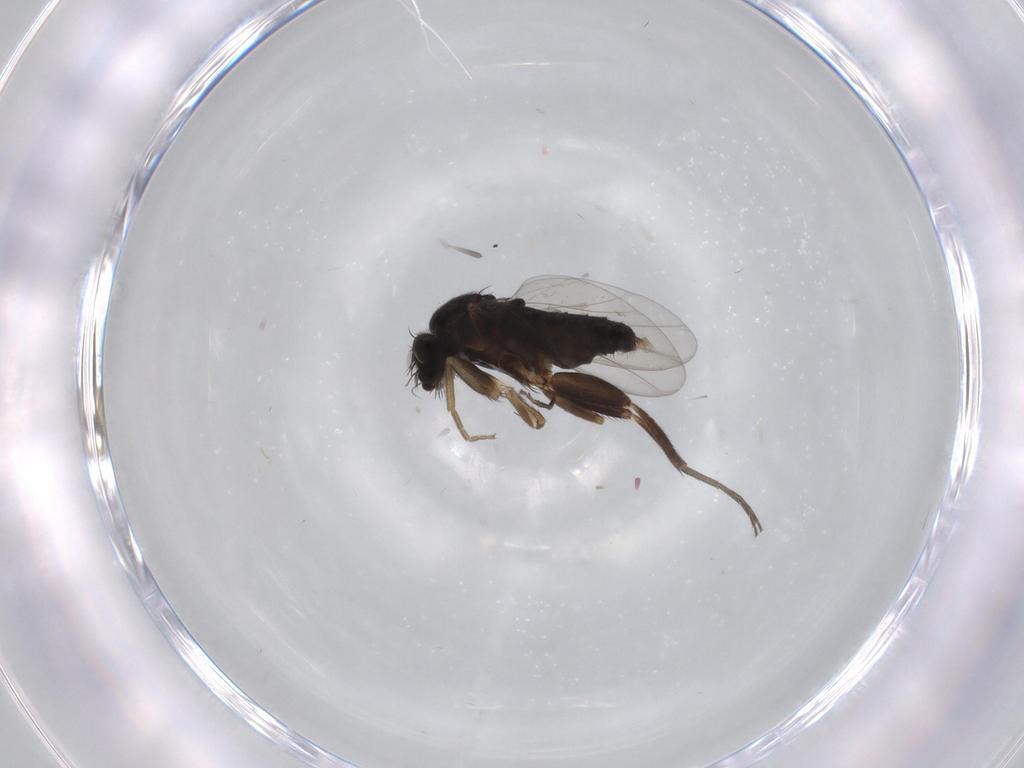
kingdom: Animalia
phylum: Arthropoda
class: Insecta
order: Diptera
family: Phoridae
